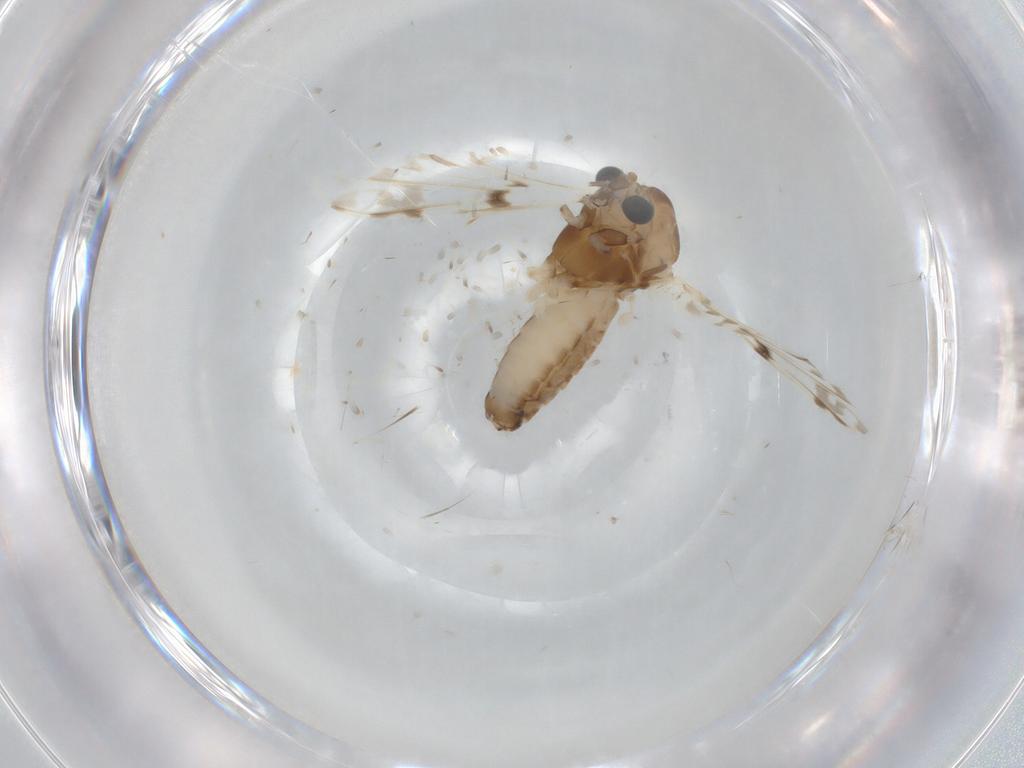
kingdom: Animalia
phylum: Arthropoda
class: Insecta
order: Diptera
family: Chironomidae
